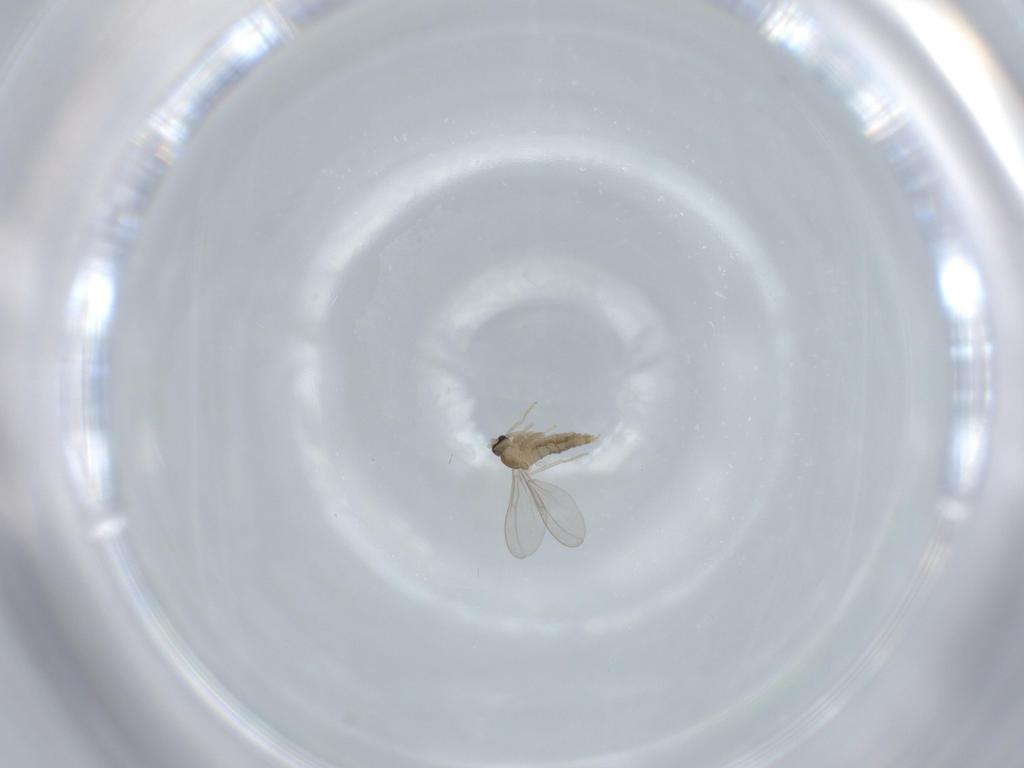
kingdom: Animalia
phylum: Arthropoda
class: Insecta
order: Diptera
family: Cecidomyiidae
